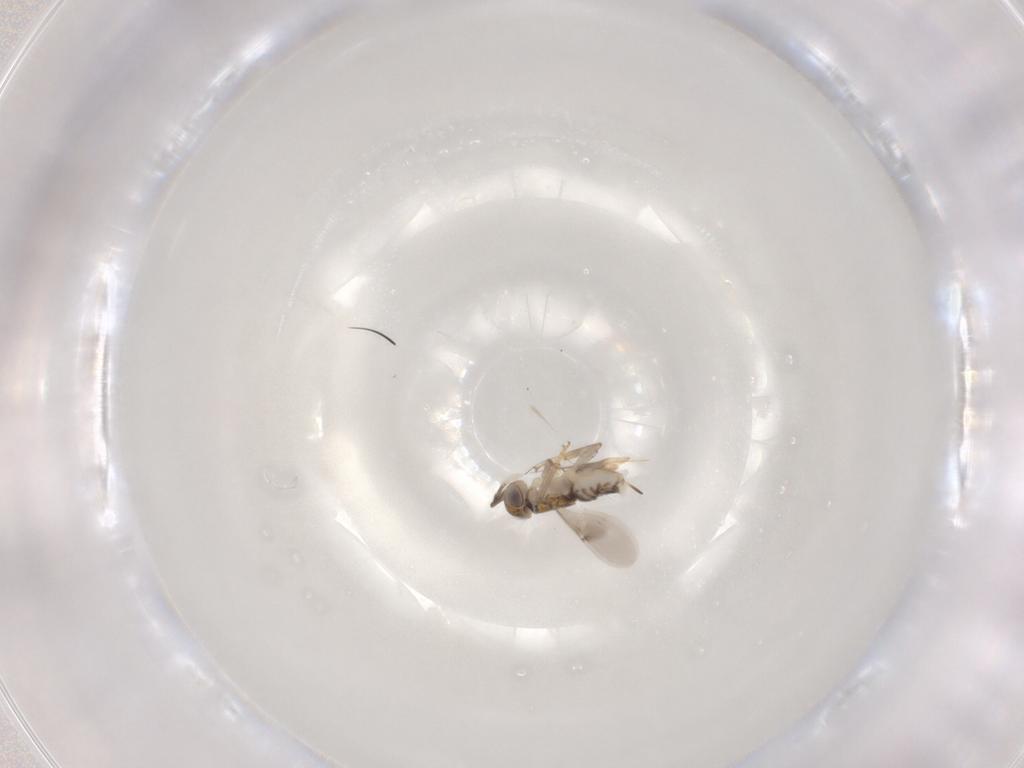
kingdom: Animalia
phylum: Arthropoda
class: Insecta
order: Hymenoptera
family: Encyrtidae
